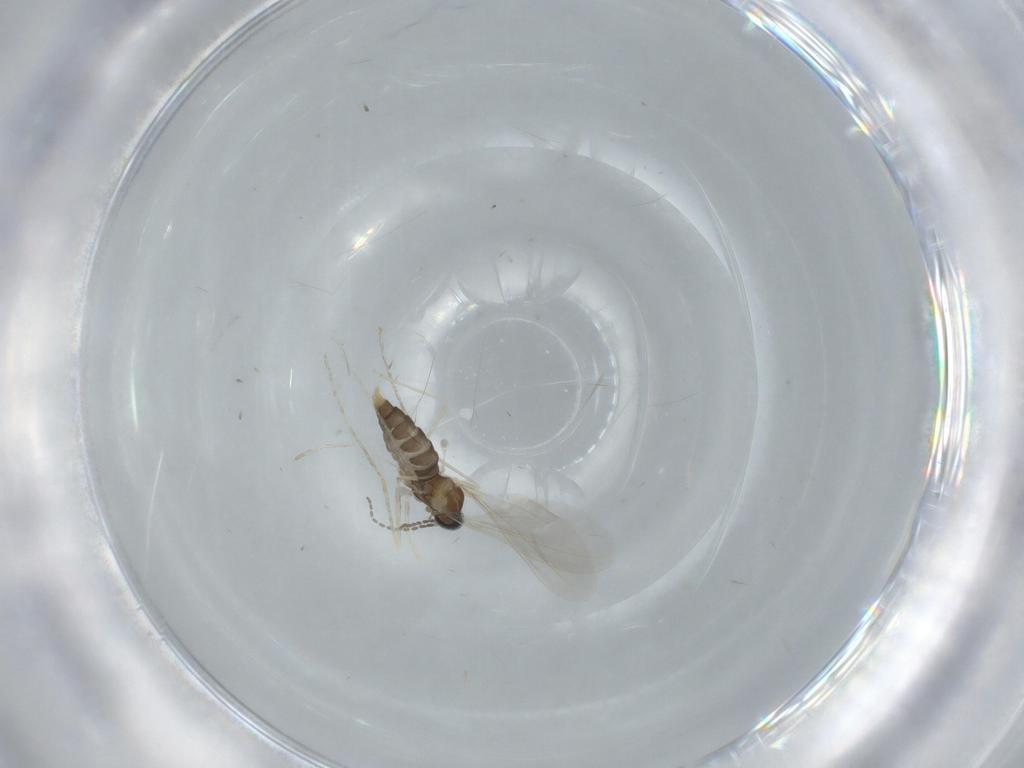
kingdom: Animalia
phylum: Arthropoda
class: Insecta
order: Diptera
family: Cecidomyiidae
